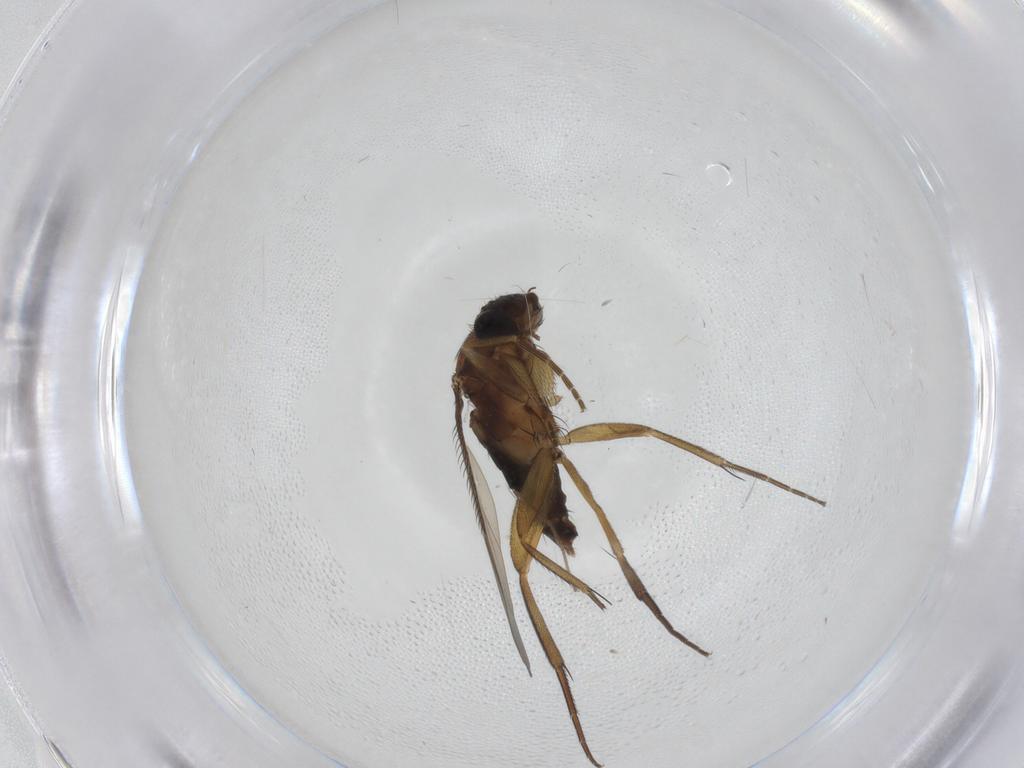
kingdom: Animalia
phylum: Arthropoda
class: Insecta
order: Diptera
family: Phoridae
